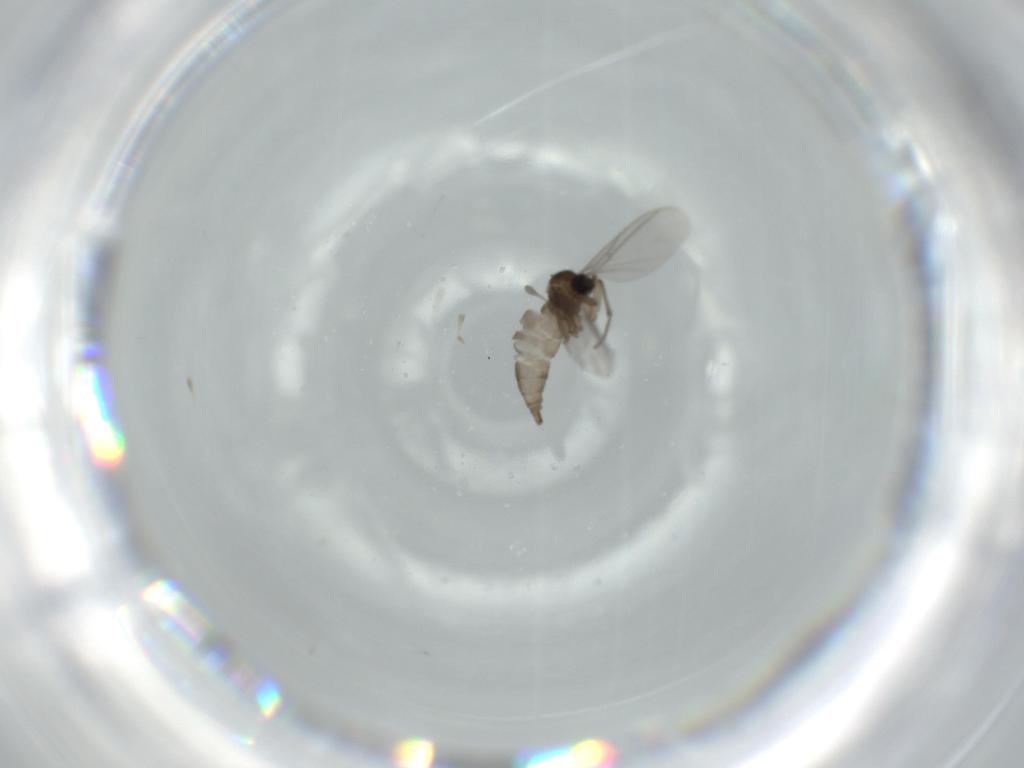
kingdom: Animalia
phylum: Arthropoda
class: Insecta
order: Diptera
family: Sciaridae
